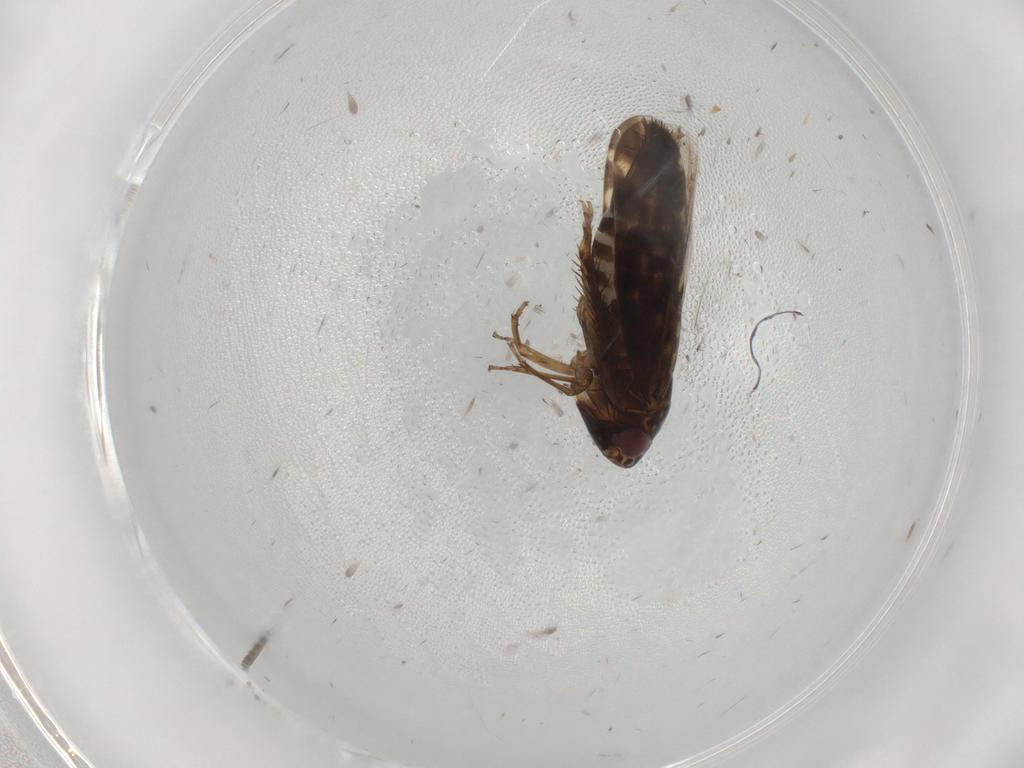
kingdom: Animalia
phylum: Arthropoda
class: Insecta
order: Hemiptera
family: Cicadellidae
